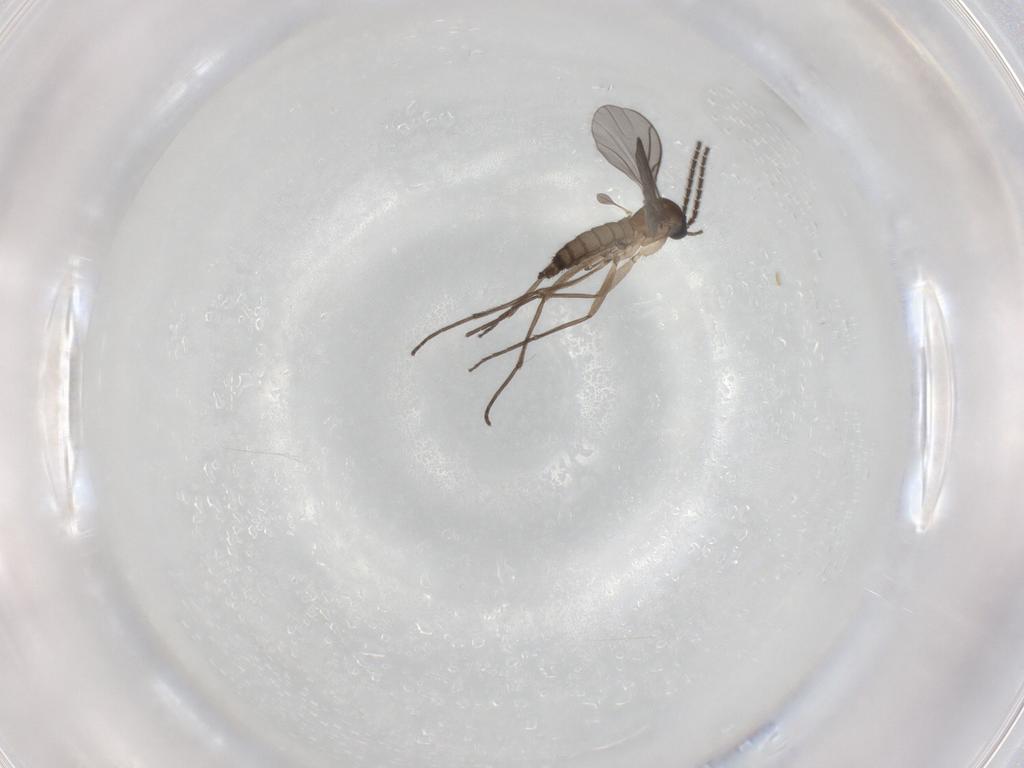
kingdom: Animalia
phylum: Arthropoda
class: Insecta
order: Diptera
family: Sciaridae
